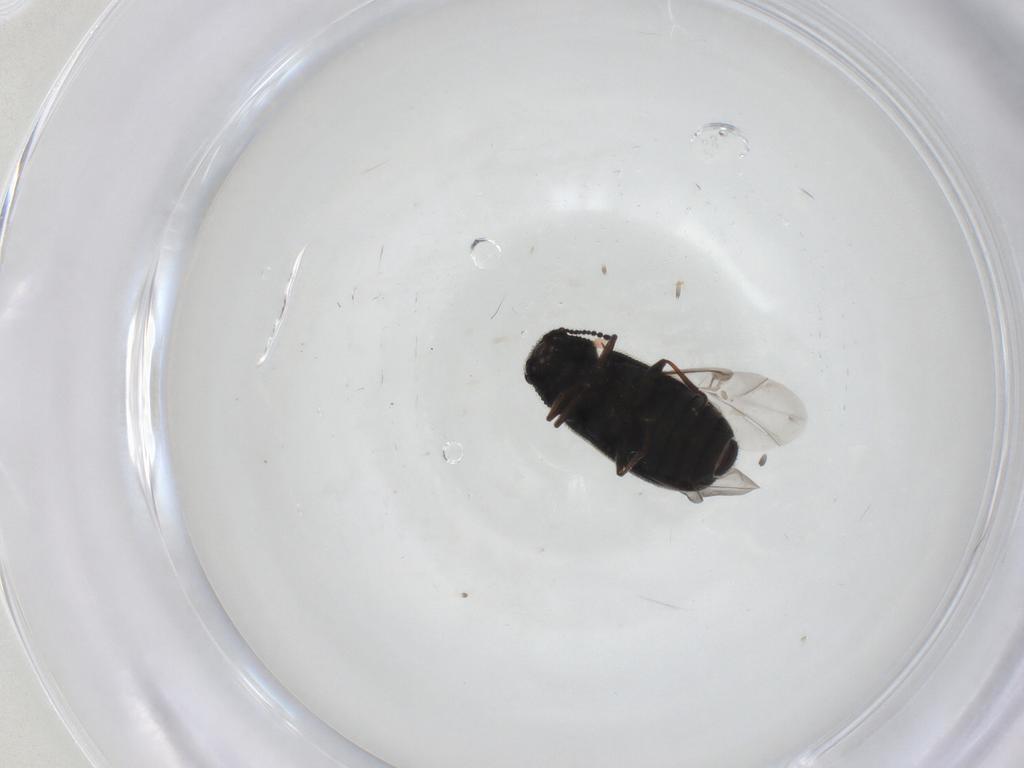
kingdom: Animalia
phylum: Arthropoda
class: Insecta
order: Coleoptera
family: Melyridae
